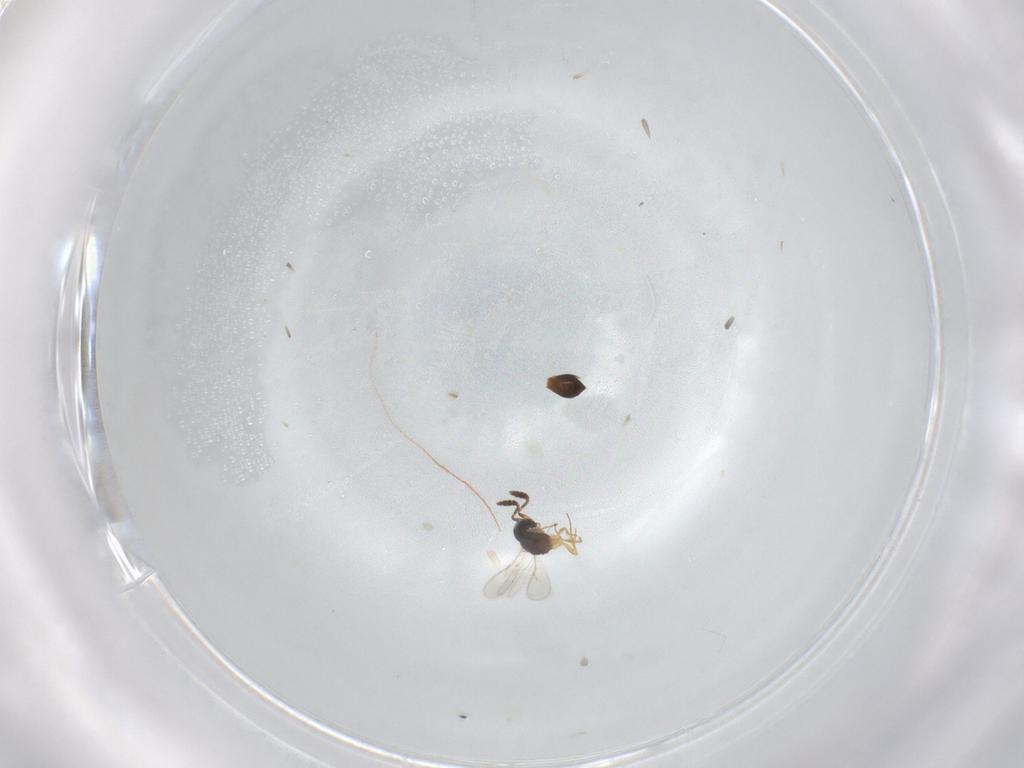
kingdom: Animalia
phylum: Arthropoda
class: Insecta
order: Hymenoptera
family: Scelionidae
